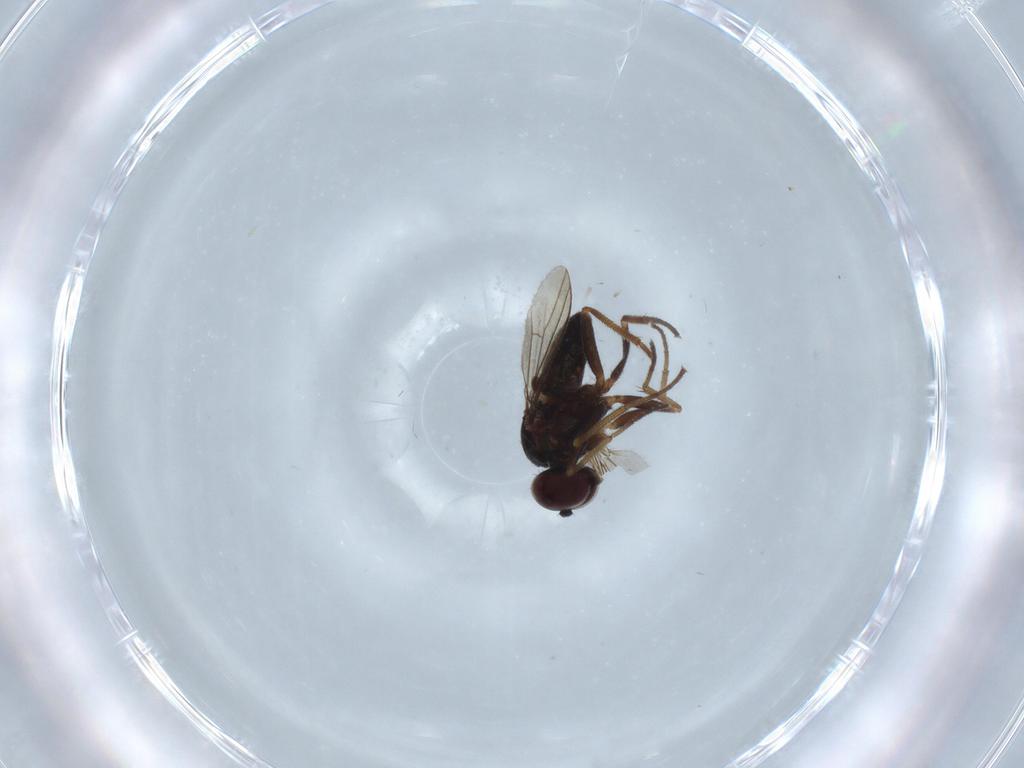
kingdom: Animalia
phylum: Arthropoda
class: Insecta
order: Diptera
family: Dolichopodidae
